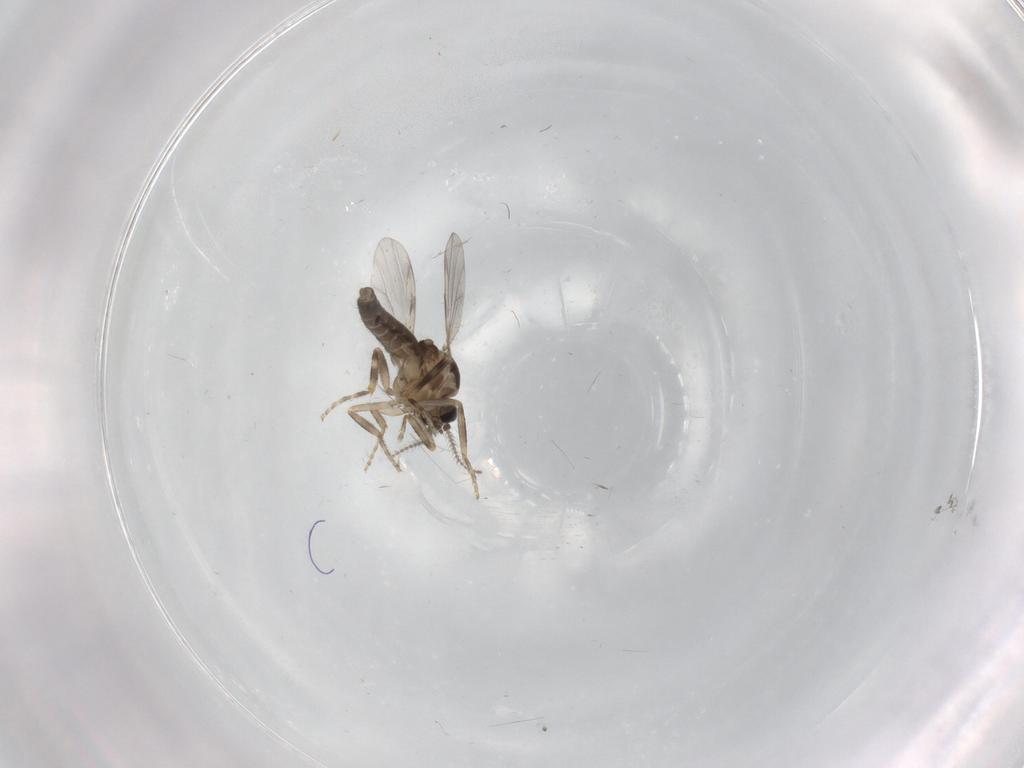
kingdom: Animalia
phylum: Arthropoda
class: Insecta
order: Diptera
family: Ceratopogonidae
